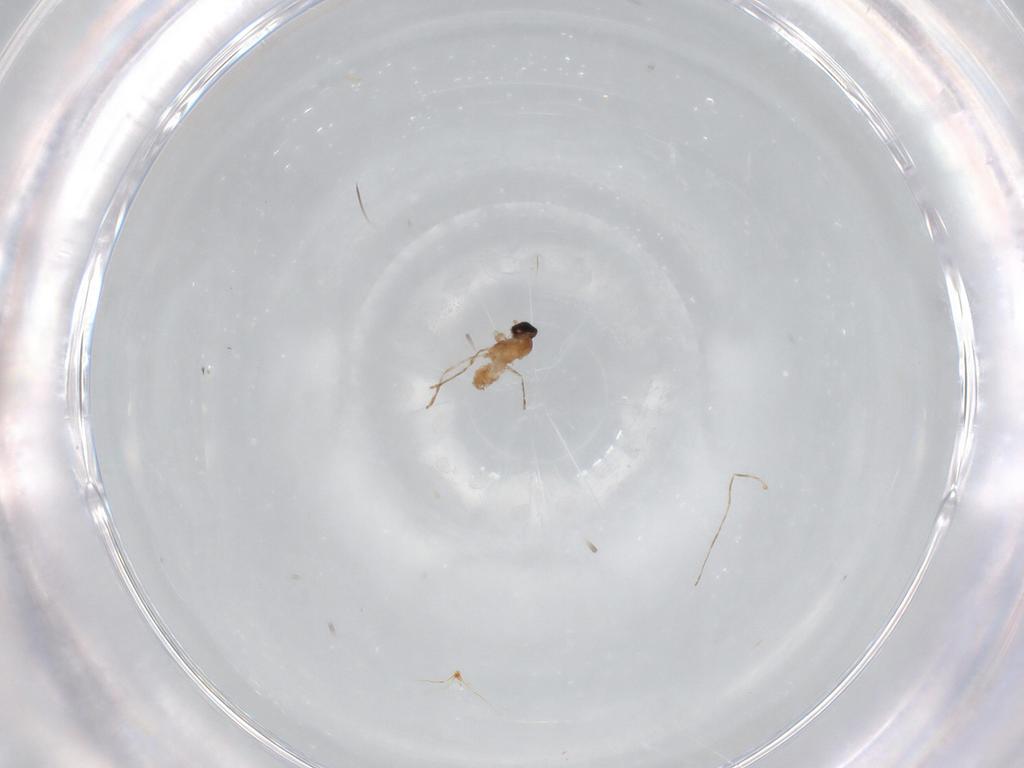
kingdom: Animalia
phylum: Arthropoda
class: Insecta
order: Diptera
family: Cecidomyiidae
